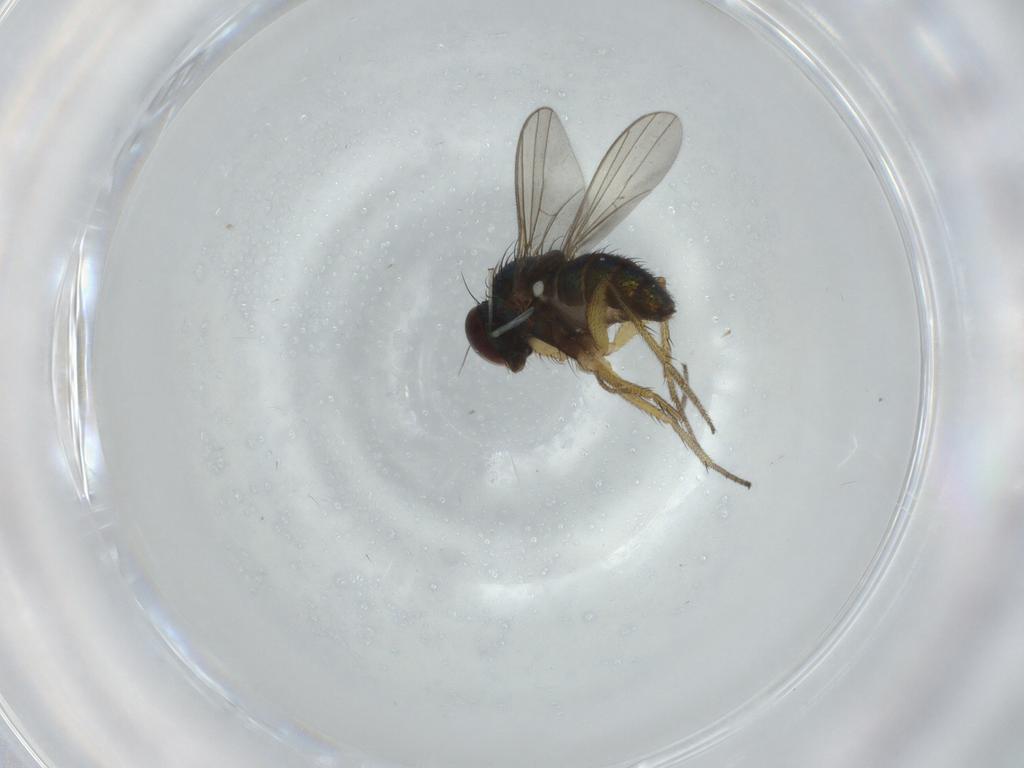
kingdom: Animalia
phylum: Arthropoda
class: Insecta
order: Diptera
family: Dolichopodidae
